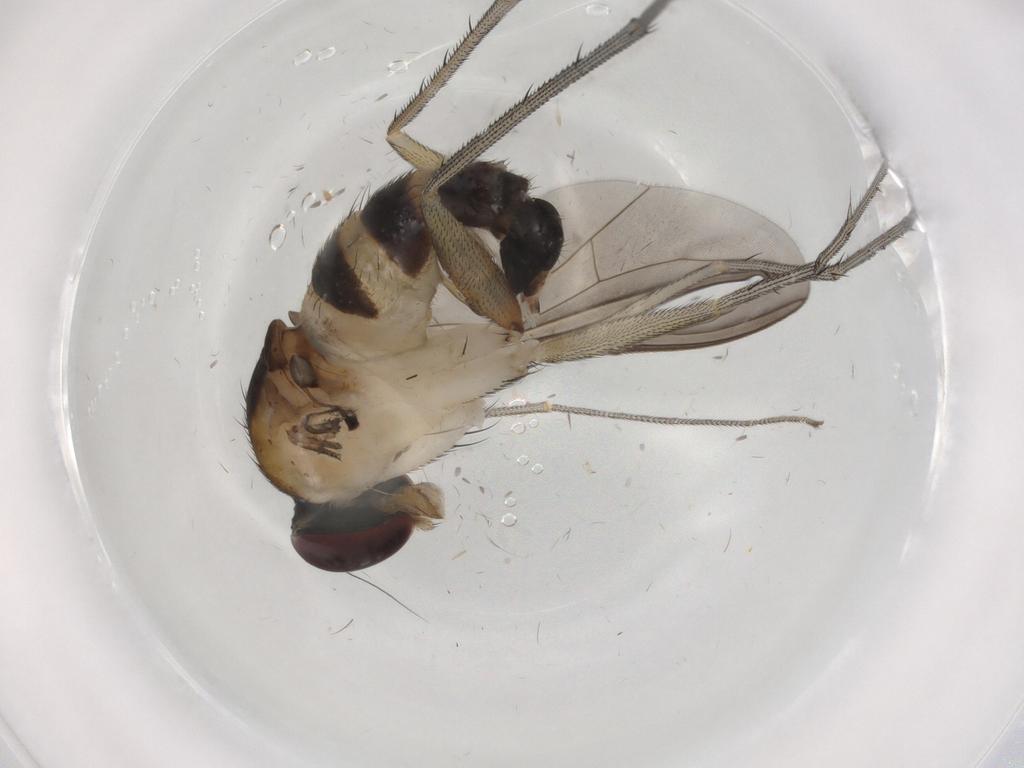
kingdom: Animalia
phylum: Arthropoda
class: Insecta
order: Diptera
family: Dolichopodidae
